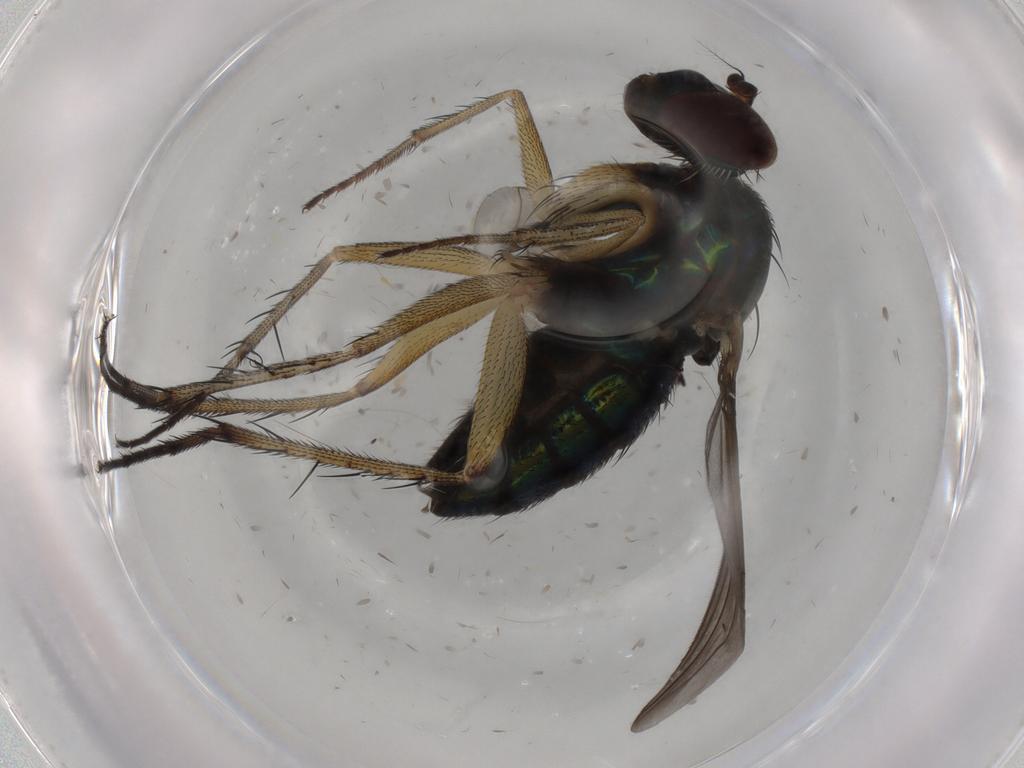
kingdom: Animalia
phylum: Arthropoda
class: Insecta
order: Diptera
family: Dolichopodidae
